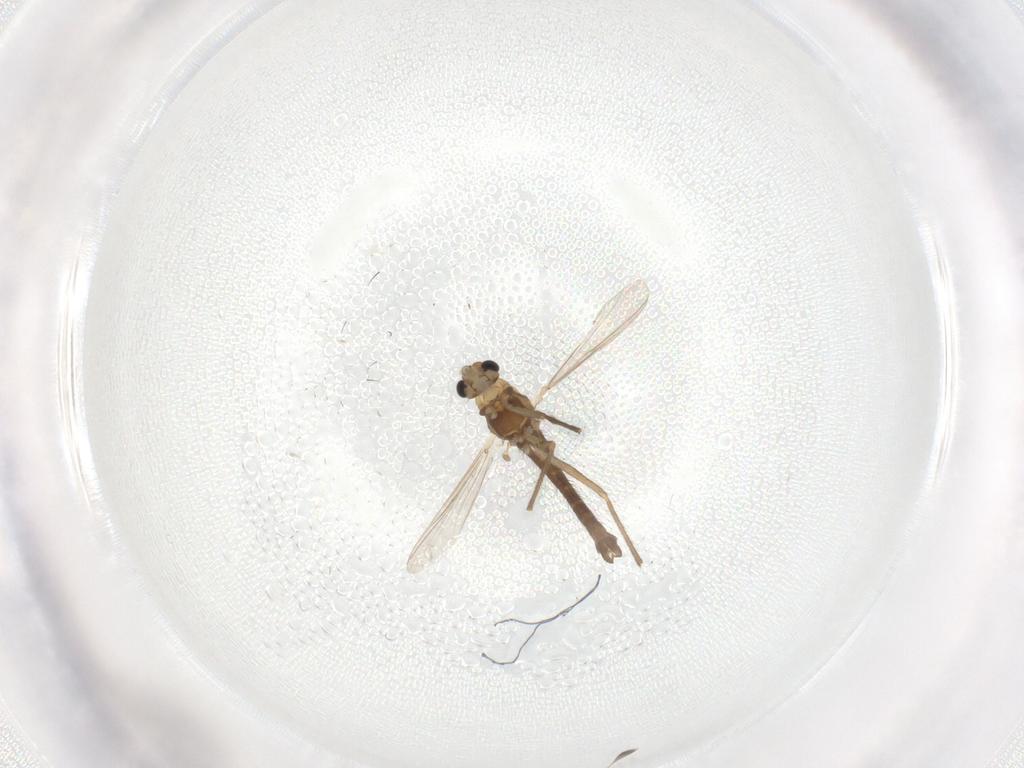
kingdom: Animalia
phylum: Arthropoda
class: Insecta
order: Diptera
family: Chironomidae
